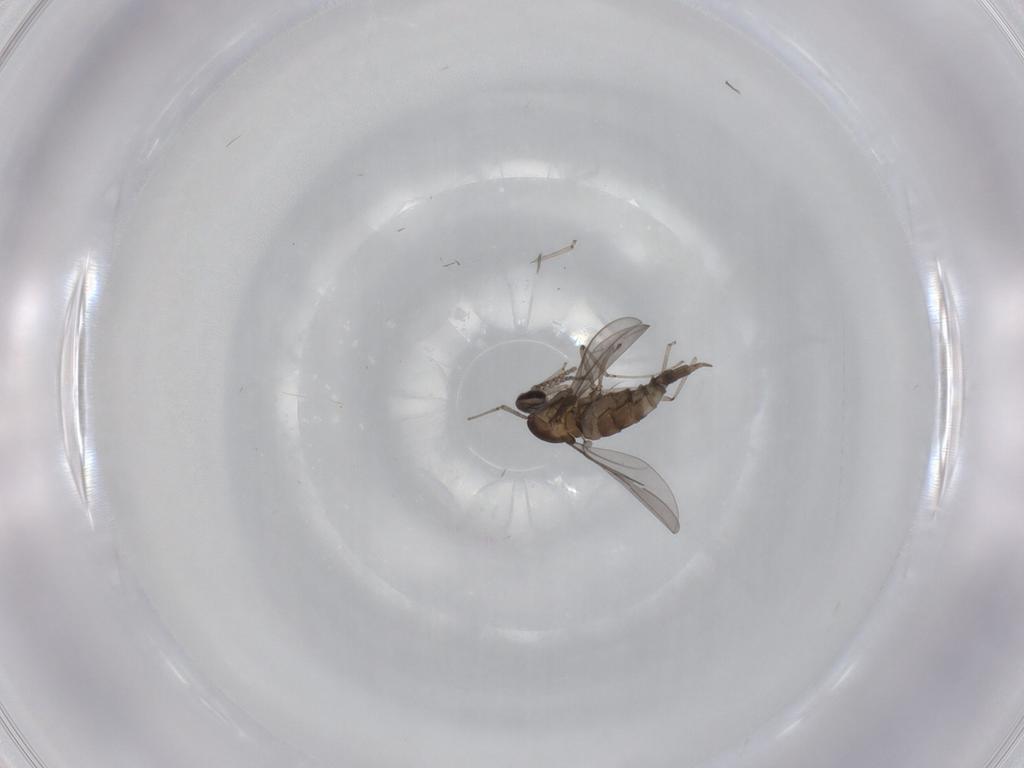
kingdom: Animalia
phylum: Arthropoda
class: Insecta
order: Diptera
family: Cecidomyiidae
